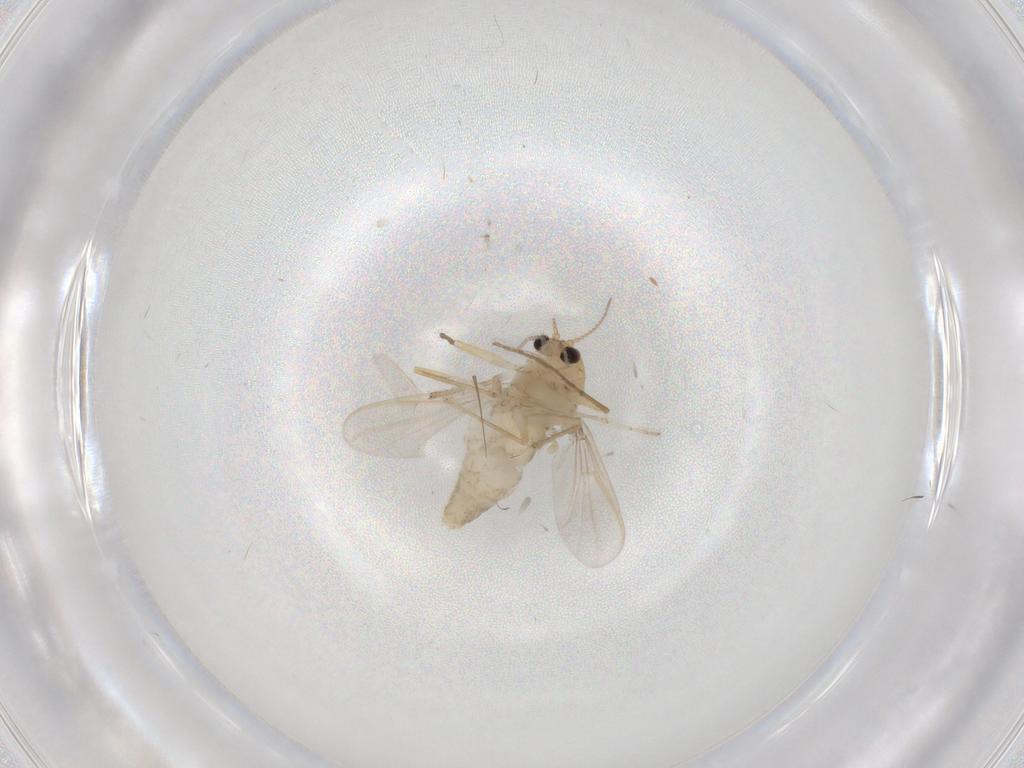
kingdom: Animalia
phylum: Arthropoda
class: Insecta
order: Diptera
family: Chironomidae
